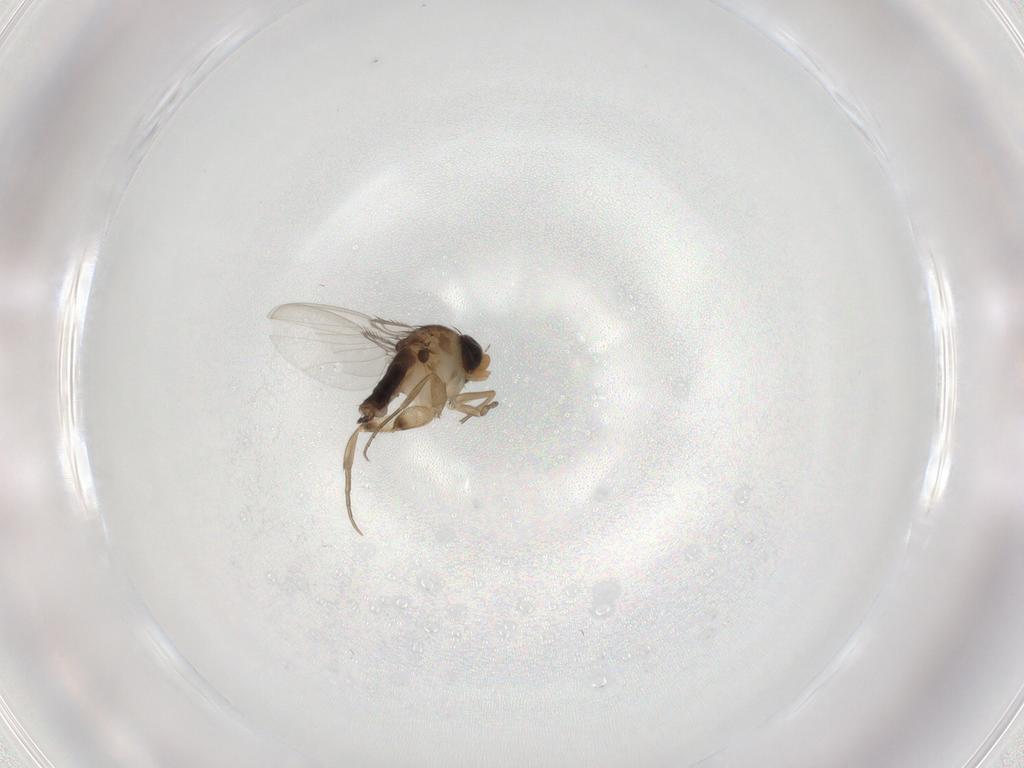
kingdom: Animalia
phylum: Arthropoda
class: Insecta
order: Diptera
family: Phoridae
